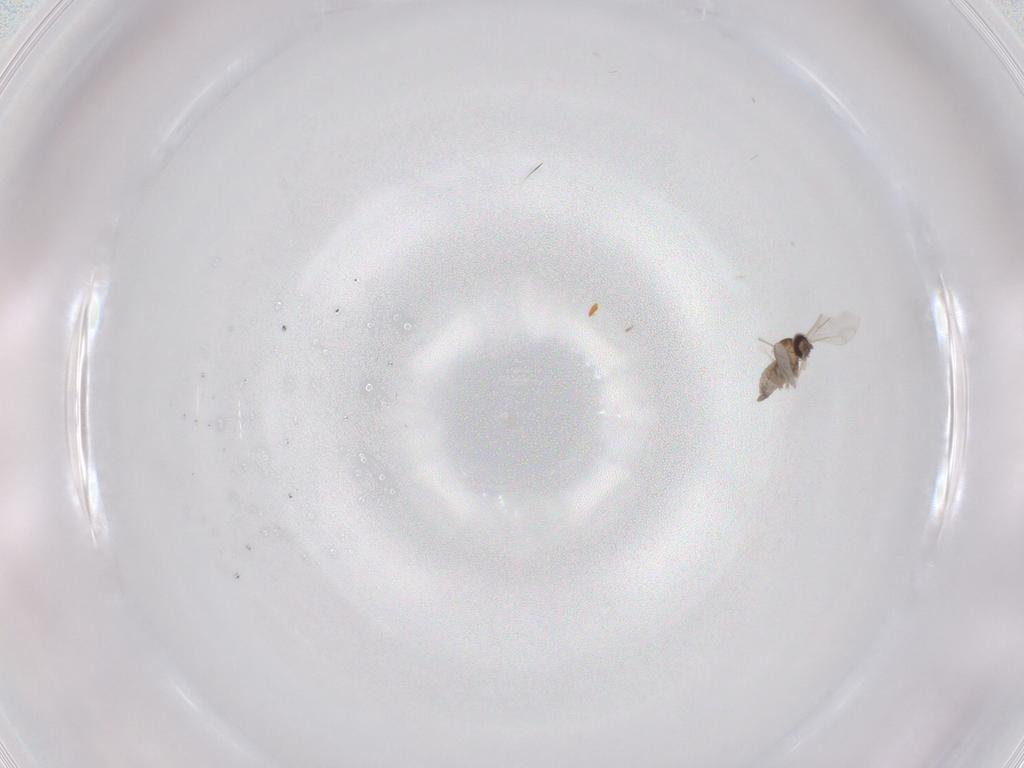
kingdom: Animalia
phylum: Arthropoda
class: Insecta
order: Diptera
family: Cecidomyiidae
